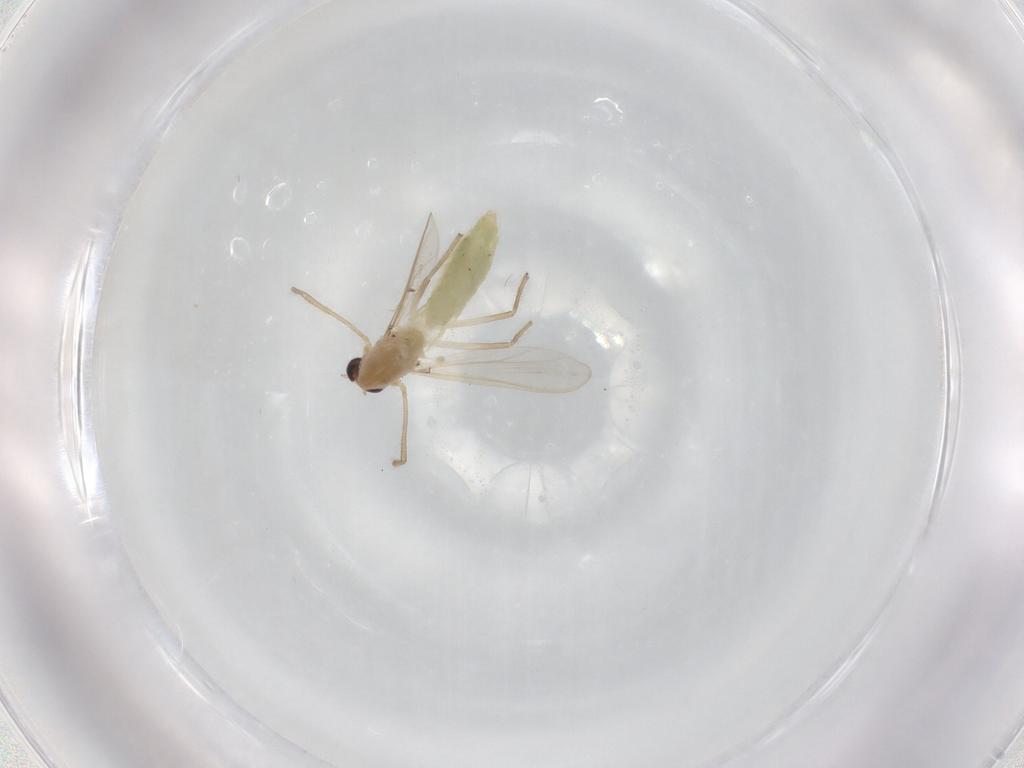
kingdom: Animalia
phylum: Arthropoda
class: Insecta
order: Diptera
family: Chironomidae
